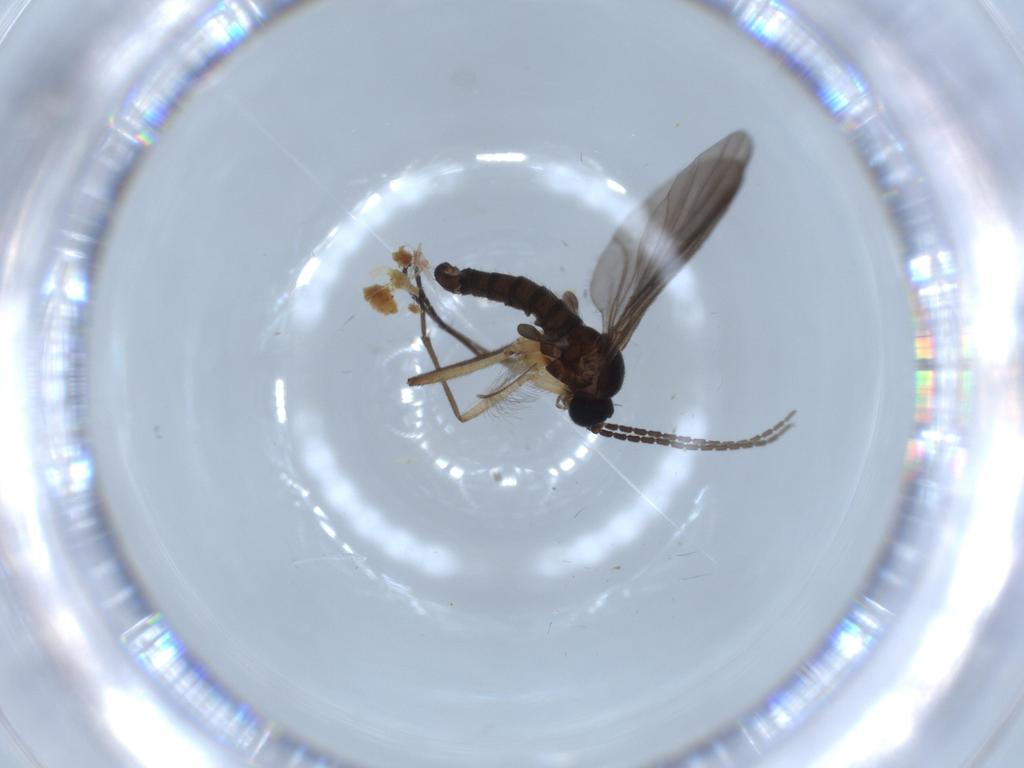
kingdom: Animalia
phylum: Arthropoda
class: Insecta
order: Diptera
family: Sciaridae
